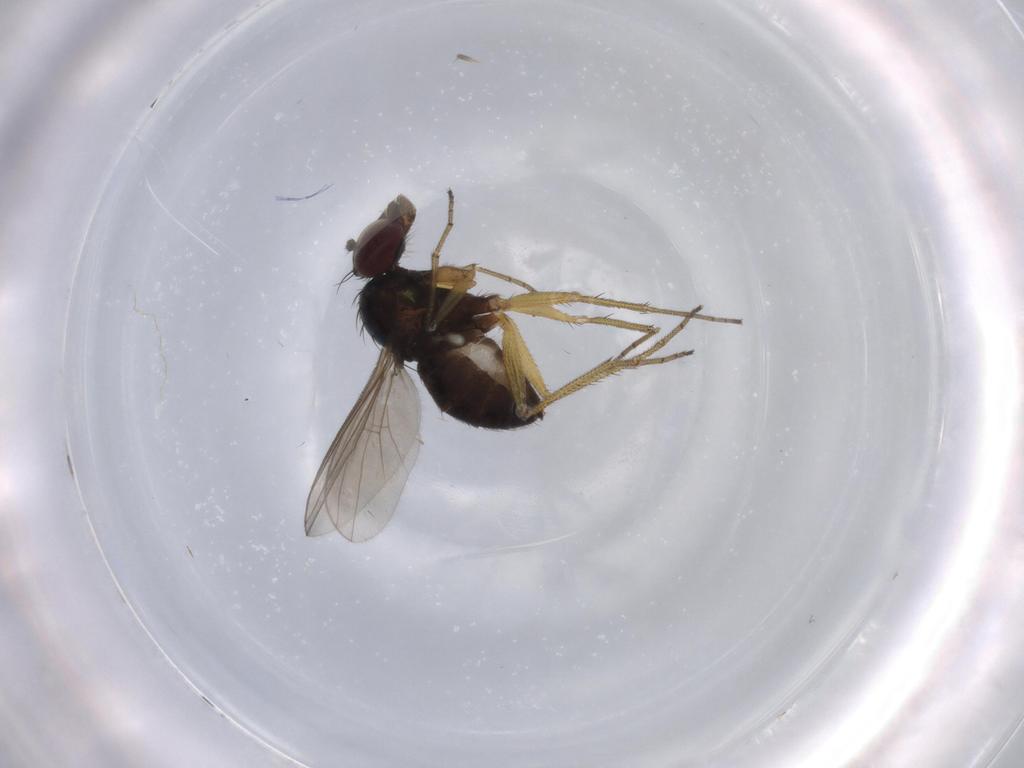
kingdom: Animalia
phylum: Arthropoda
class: Insecta
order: Diptera
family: Dolichopodidae
